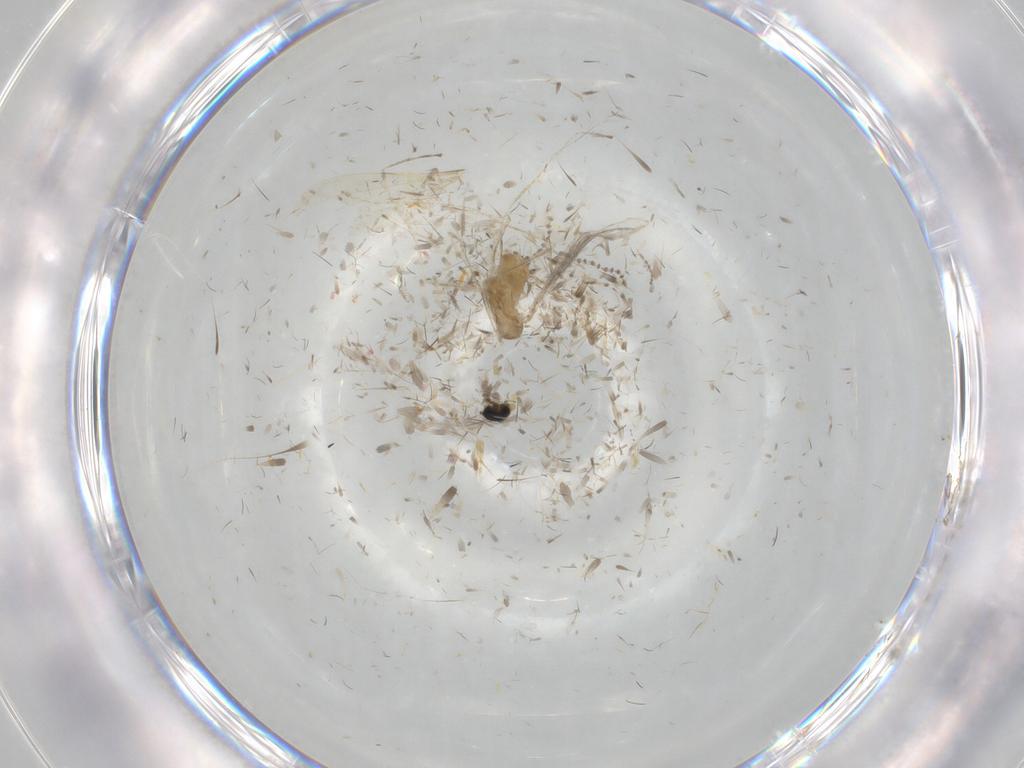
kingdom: Animalia
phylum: Arthropoda
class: Insecta
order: Diptera
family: Cecidomyiidae
